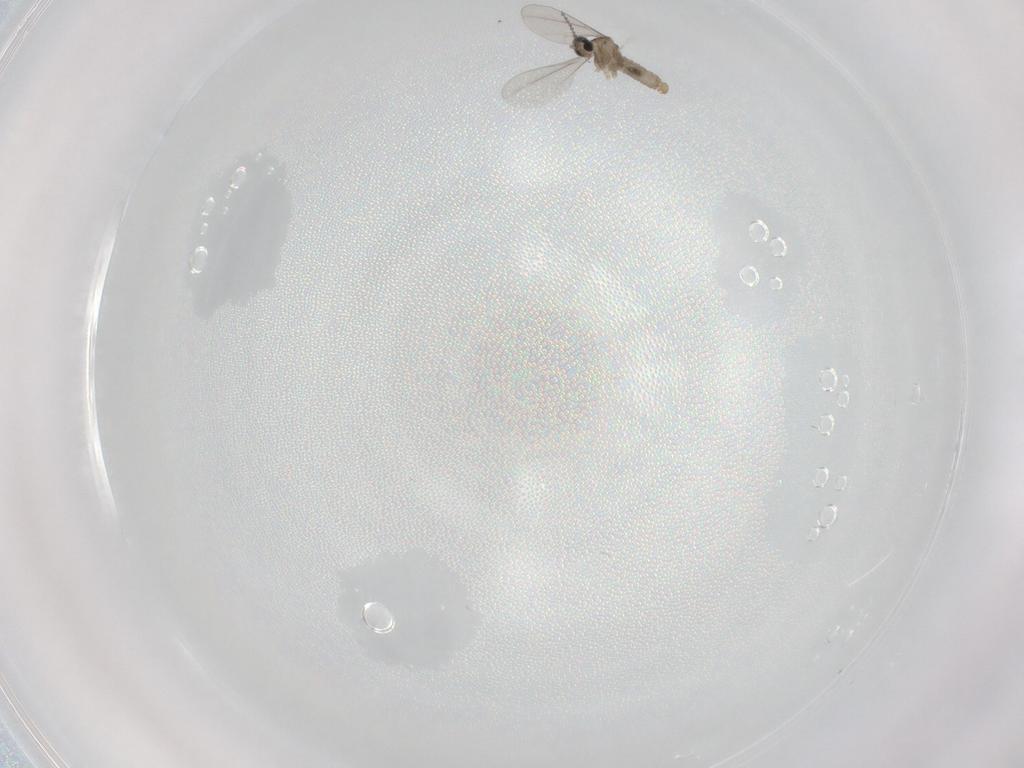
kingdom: Animalia
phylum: Arthropoda
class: Insecta
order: Diptera
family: Cecidomyiidae
